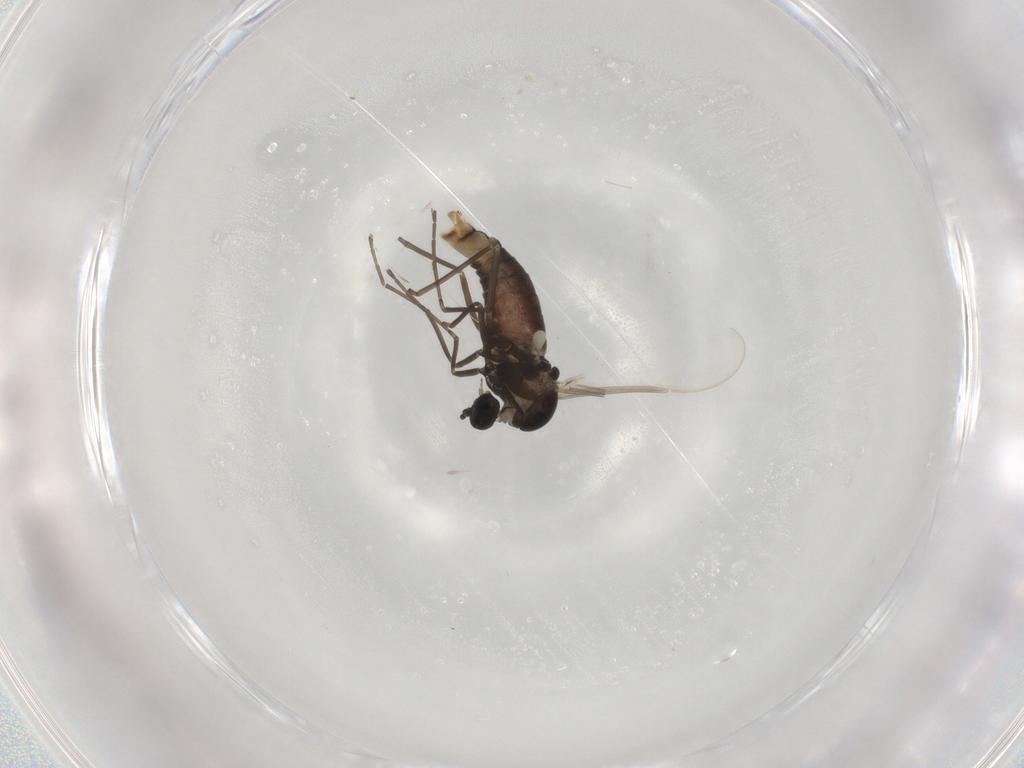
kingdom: Animalia
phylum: Arthropoda
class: Insecta
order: Diptera
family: Cecidomyiidae
